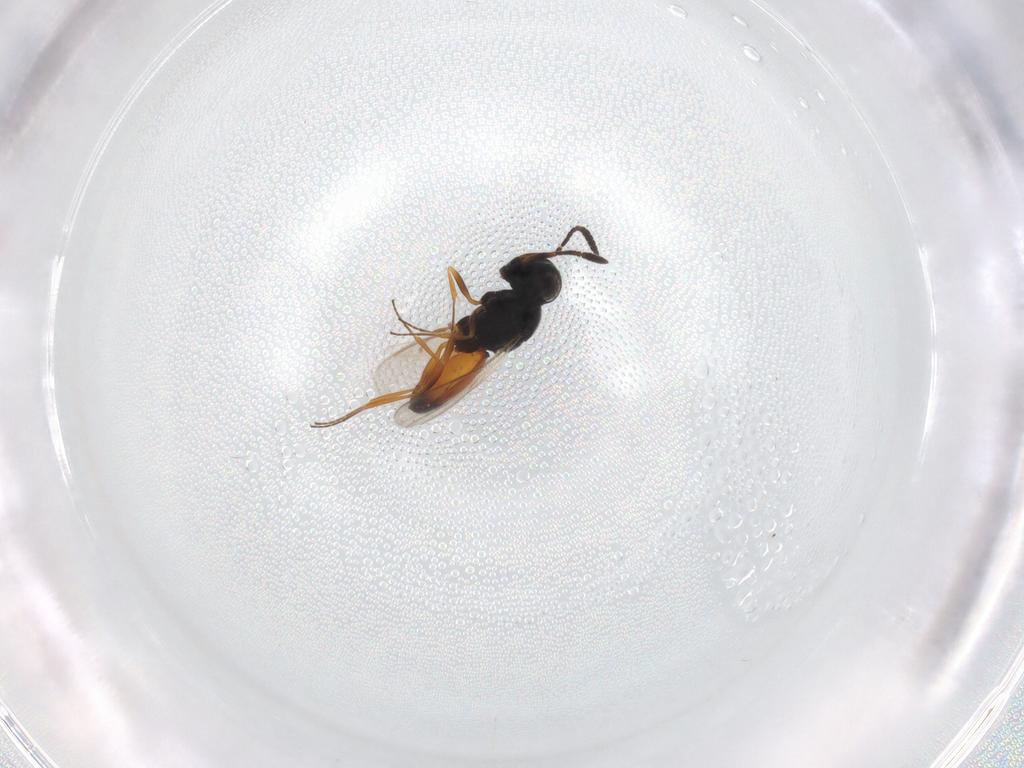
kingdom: Animalia
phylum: Arthropoda
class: Insecta
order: Hymenoptera
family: Scelionidae
